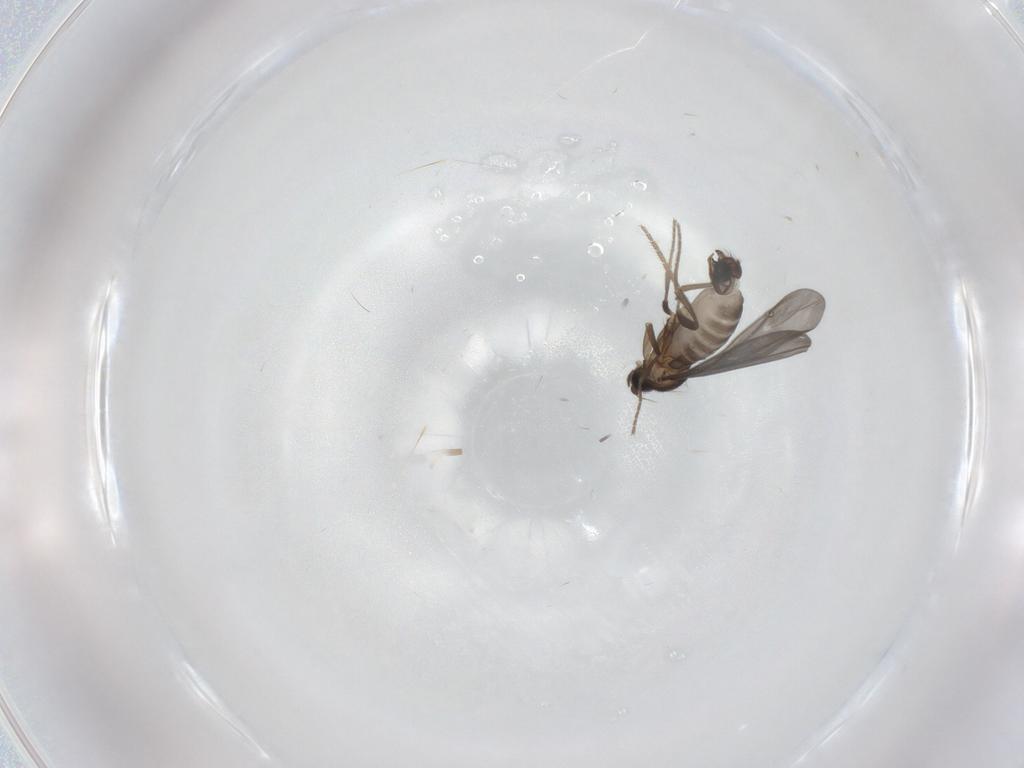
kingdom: Animalia
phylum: Arthropoda
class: Insecta
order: Diptera
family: Phoridae
